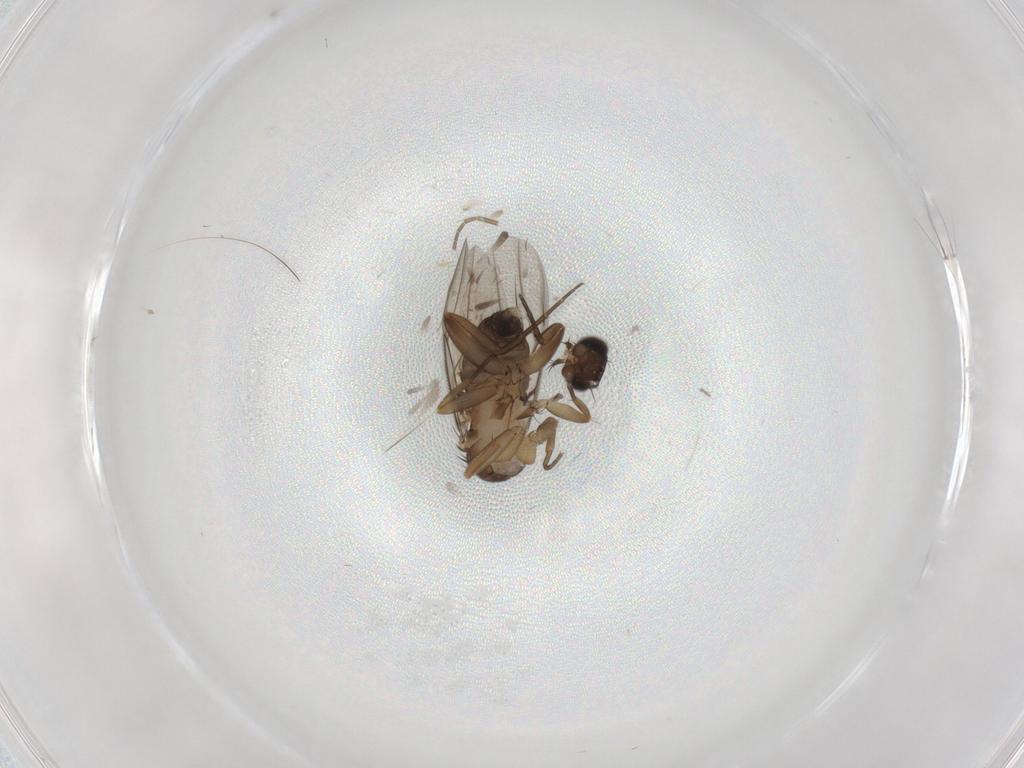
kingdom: Animalia
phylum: Arthropoda
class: Insecta
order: Diptera
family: Phoridae
